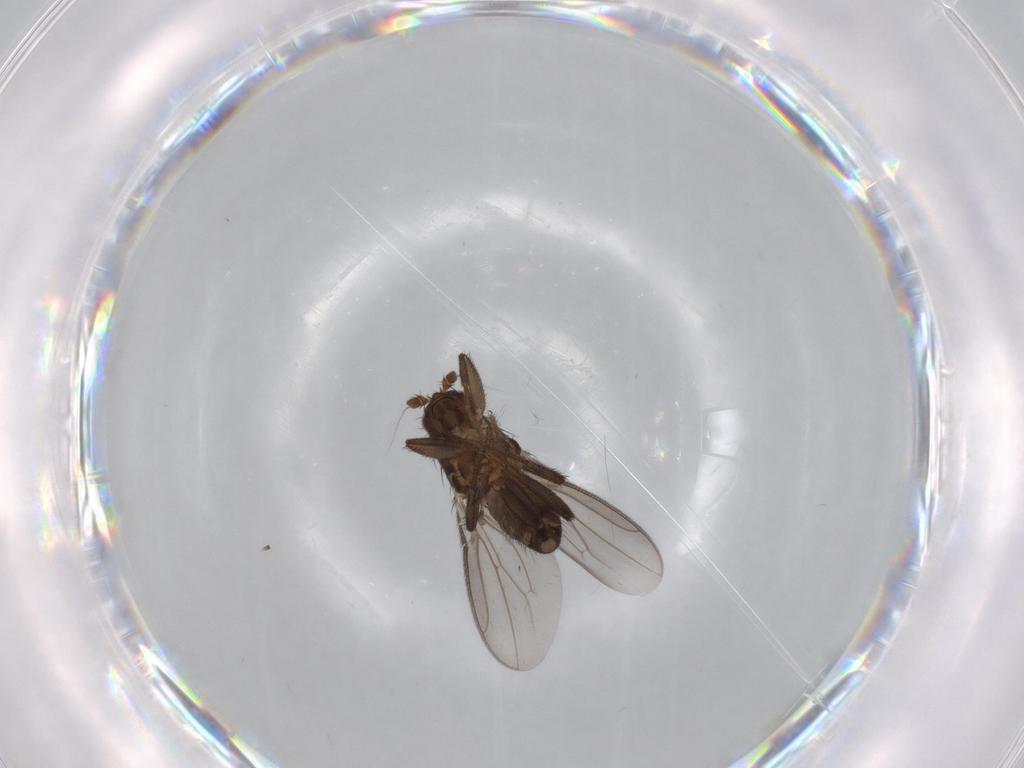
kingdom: Animalia
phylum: Arthropoda
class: Insecta
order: Diptera
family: Sphaeroceridae
